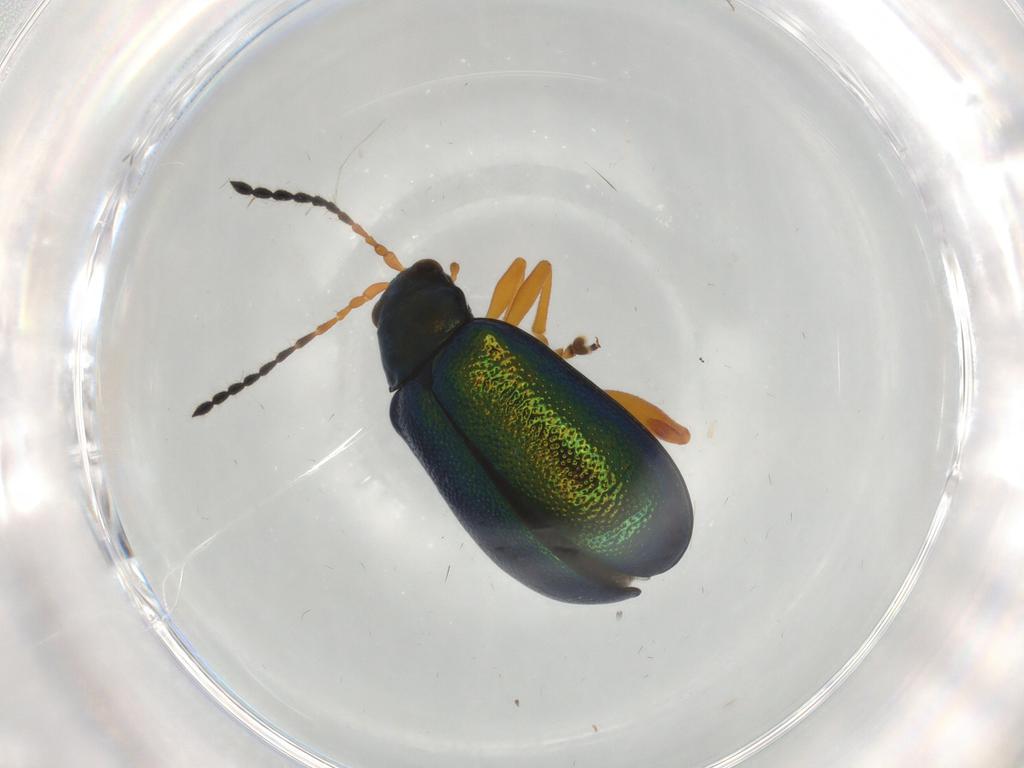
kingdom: Animalia
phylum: Arthropoda
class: Insecta
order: Coleoptera
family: Chrysomelidae
